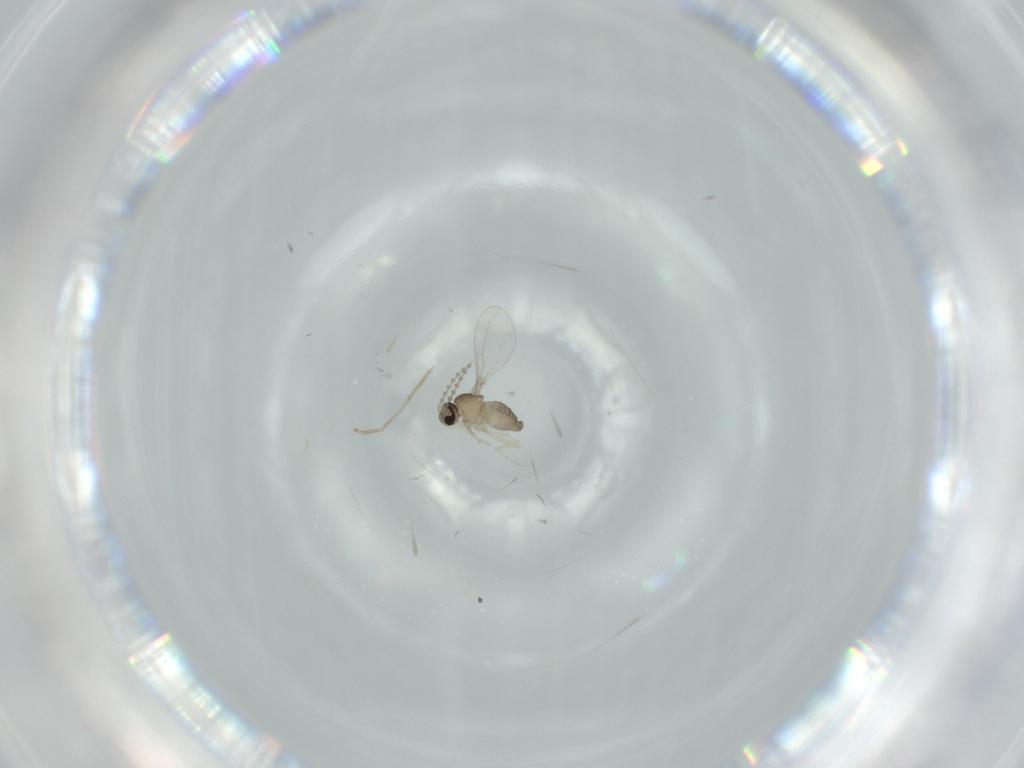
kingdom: Animalia
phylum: Arthropoda
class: Insecta
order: Diptera
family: Cecidomyiidae
